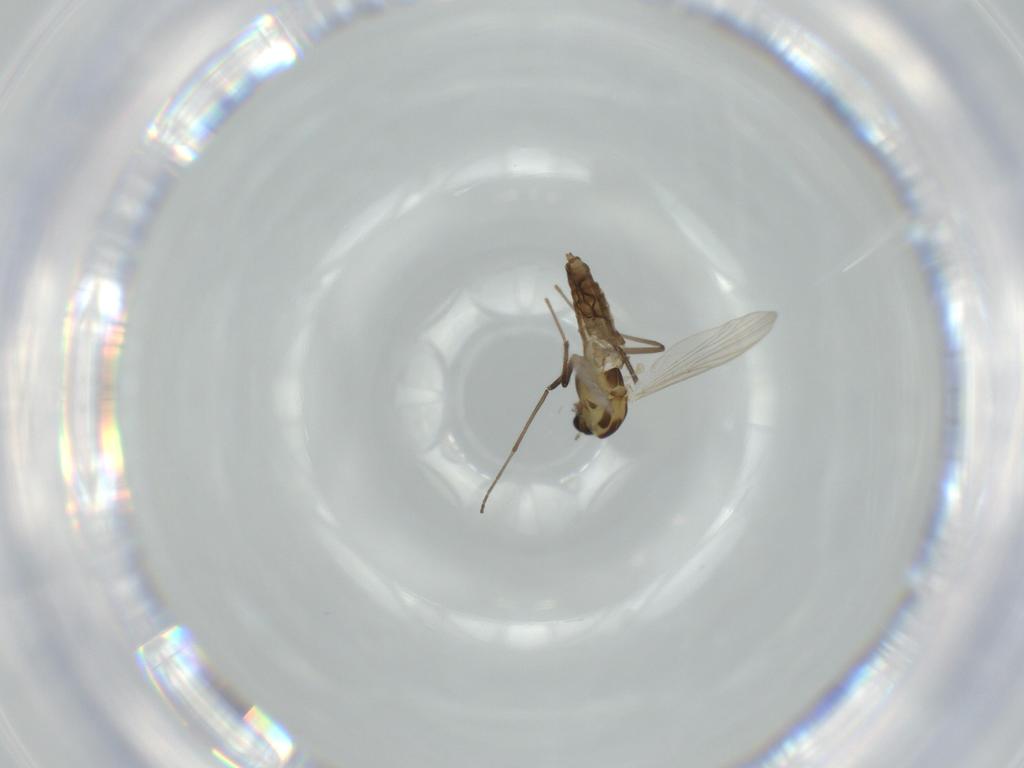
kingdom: Animalia
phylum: Arthropoda
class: Insecta
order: Diptera
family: Chironomidae
